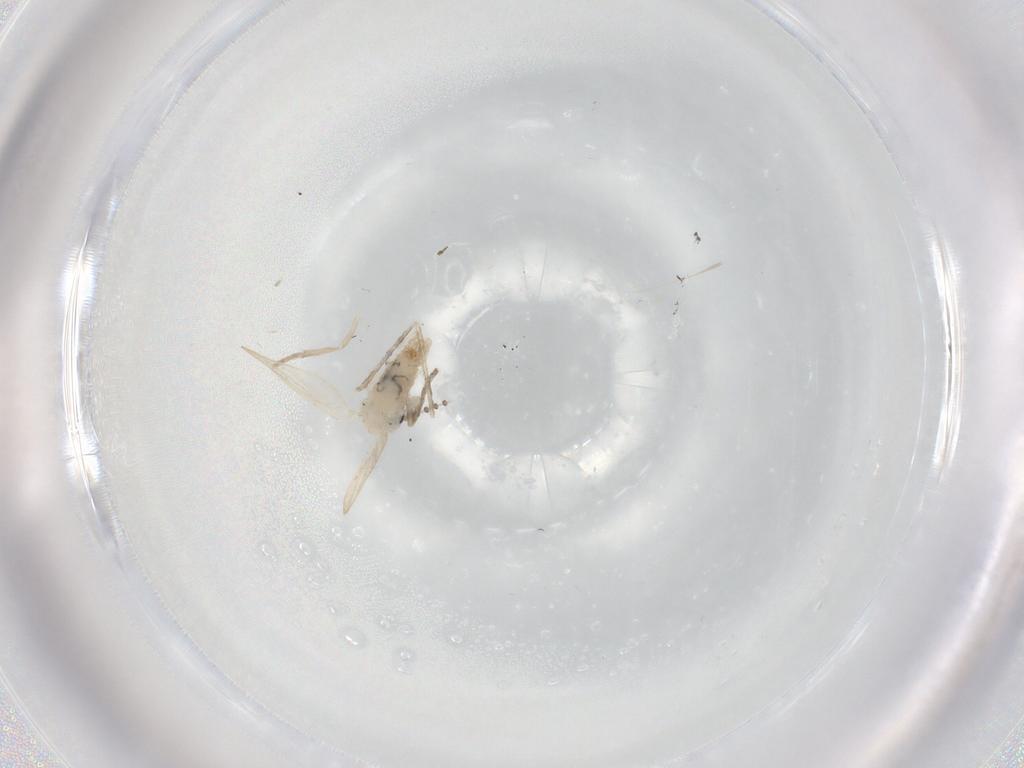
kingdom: Animalia
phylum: Arthropoda
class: Insecta
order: Diptera
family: Psychodidae
